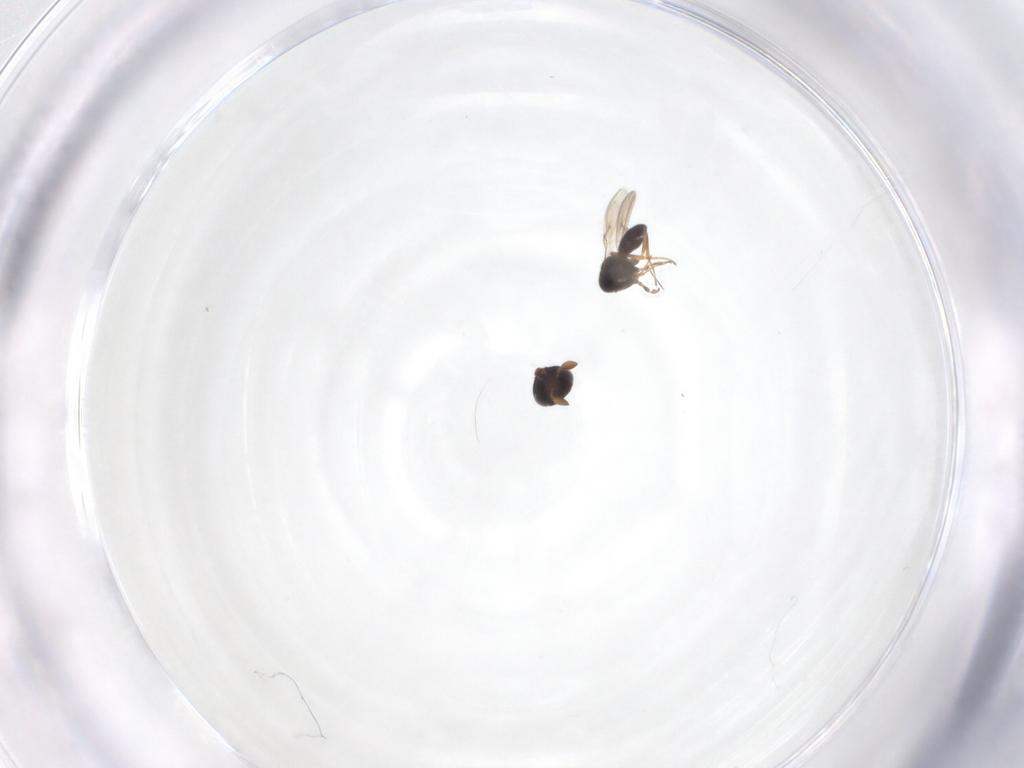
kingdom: Animalia
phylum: Arthropoda
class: Insecta
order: Hymenoptera
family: Scelionidae
